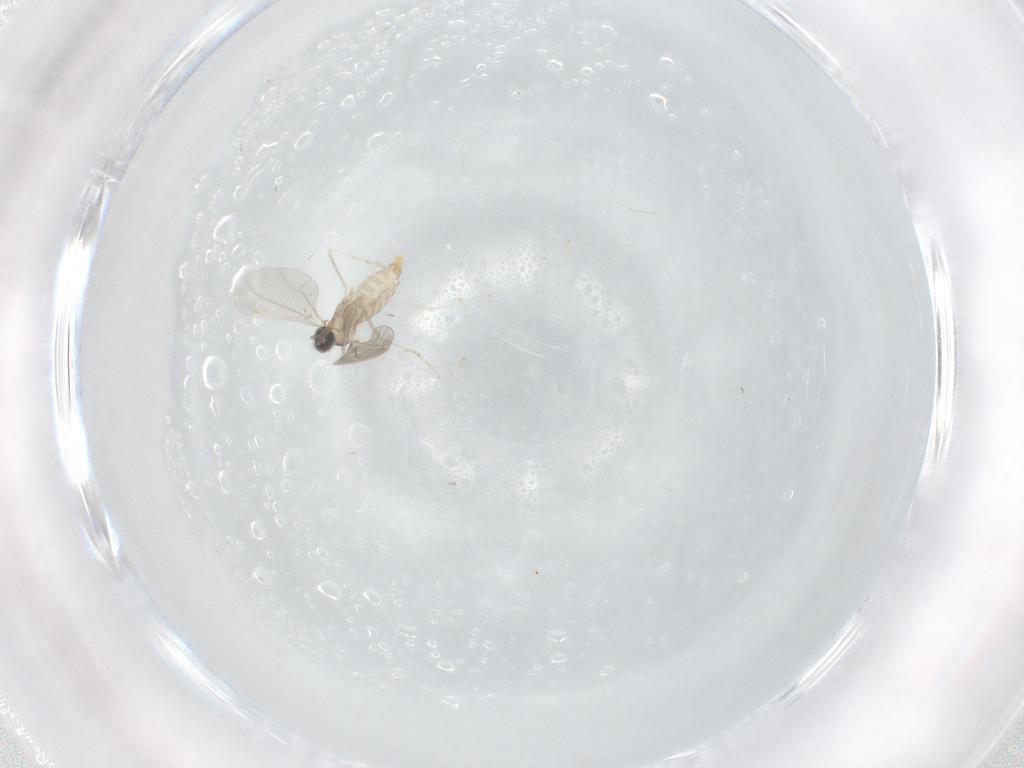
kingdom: Animalia
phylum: Arthropoda
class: Insecta
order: Diptera
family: Cecidomyiidae
